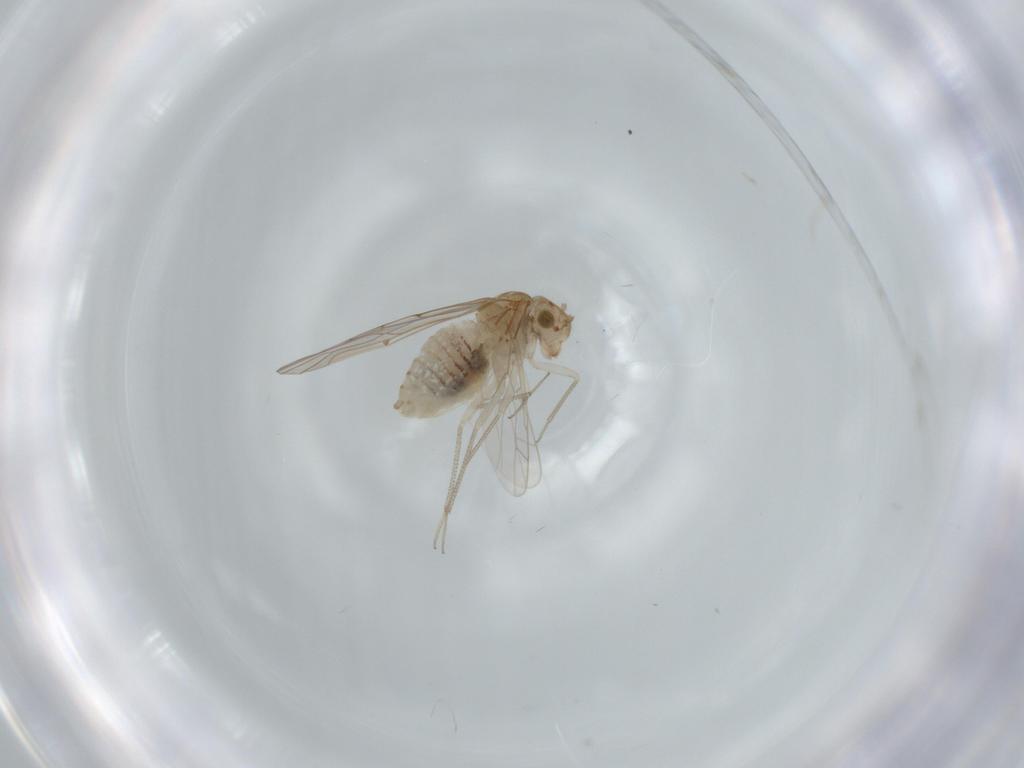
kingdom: Animalia
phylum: Arthropoda
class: Insecta
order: Psocodea
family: Lachesillidae
